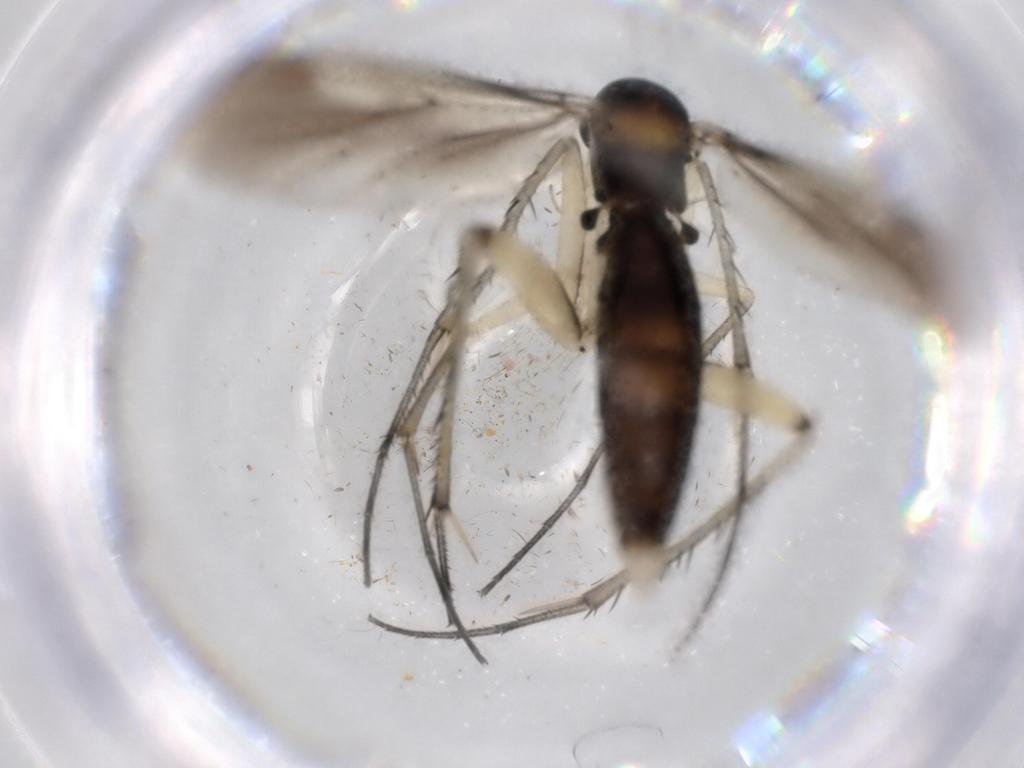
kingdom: Animalia
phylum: Arthropoda
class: Insecta
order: Diptera
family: Mycetophilidae
